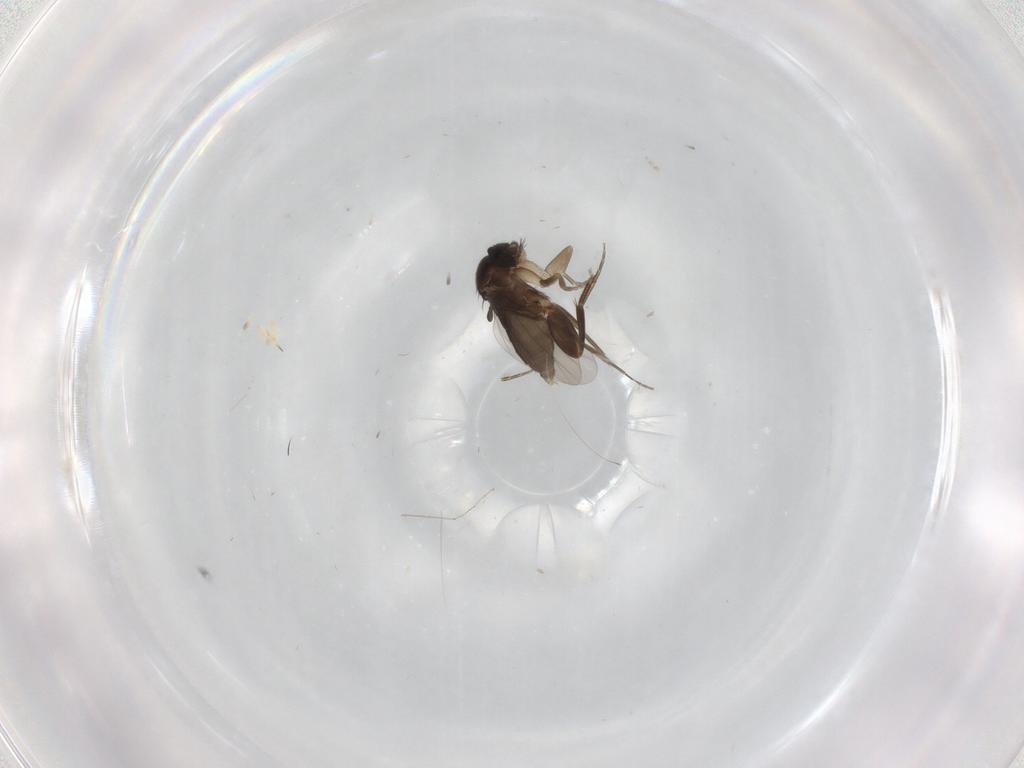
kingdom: Animalia
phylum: Arthropoda
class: Insecta
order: Diptera
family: Phoridae
